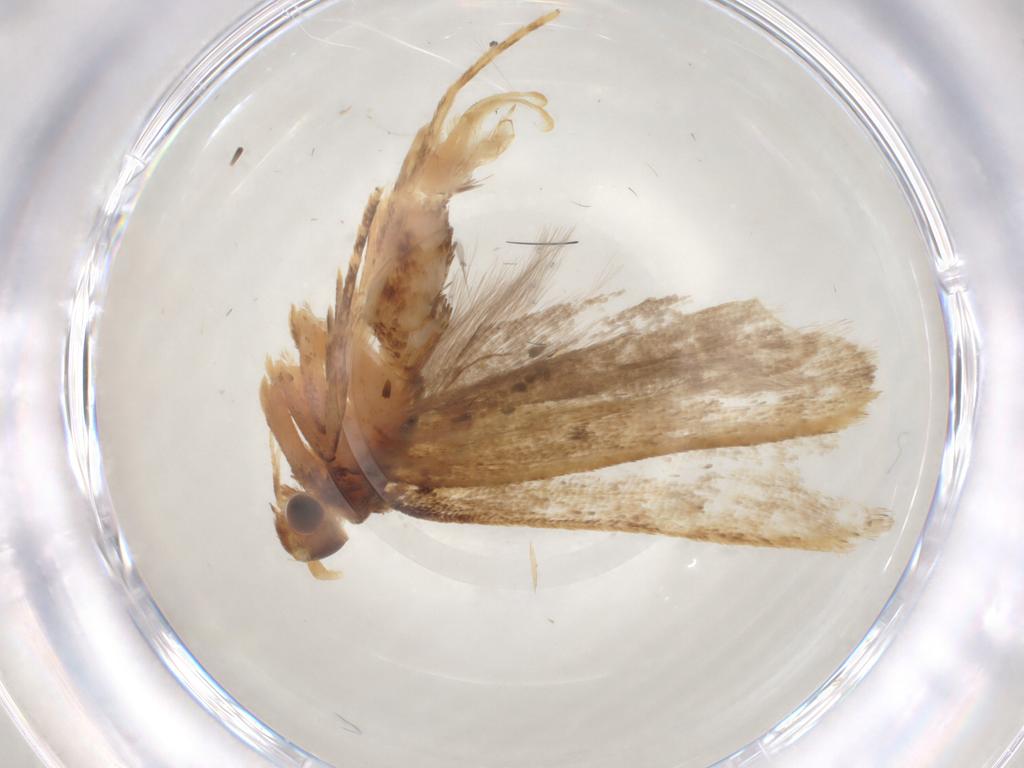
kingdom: Animalia
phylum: Arthropoda
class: Insecta
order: Lepidoptera
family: Lecithoceridae
